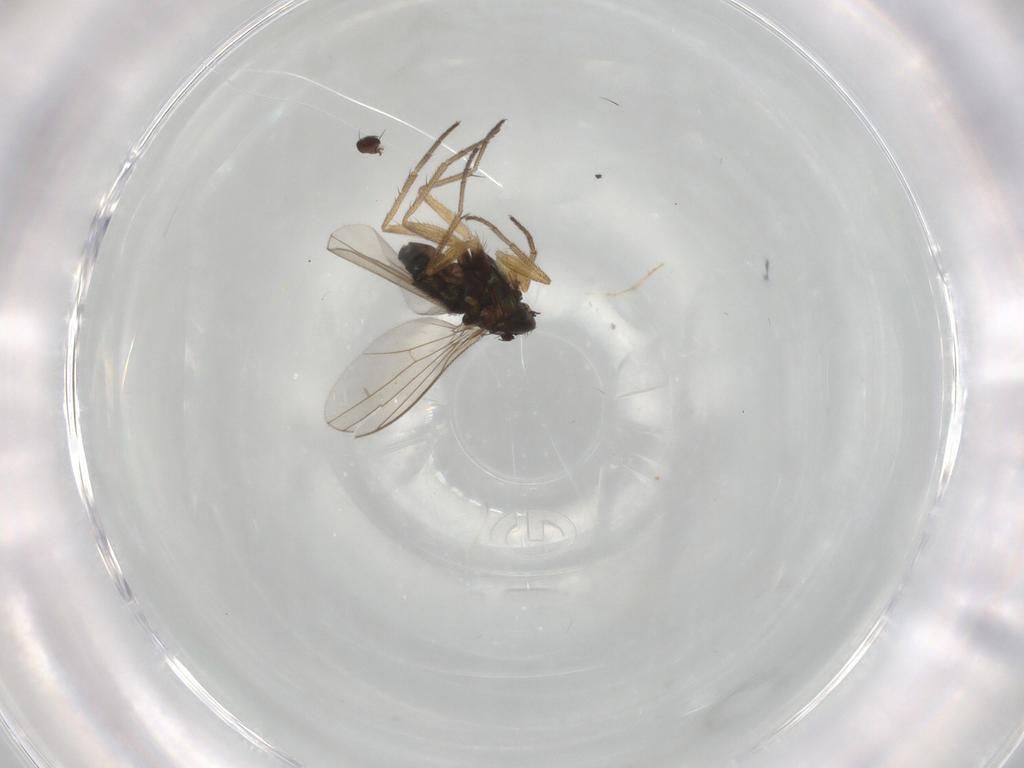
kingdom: Animalia
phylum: Arthropoda
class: Insecta
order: Diptera
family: Dolichopodidae
